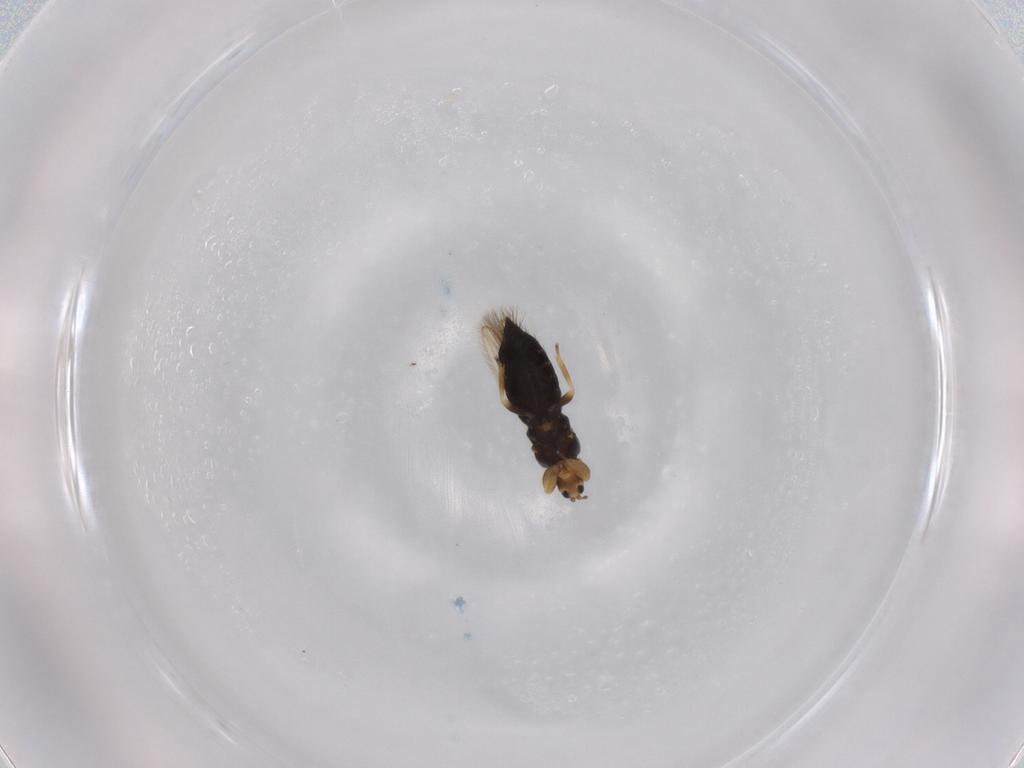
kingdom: Animalia
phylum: Arthropoda
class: Insecta
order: Thysanoptera
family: Melanthripidae
